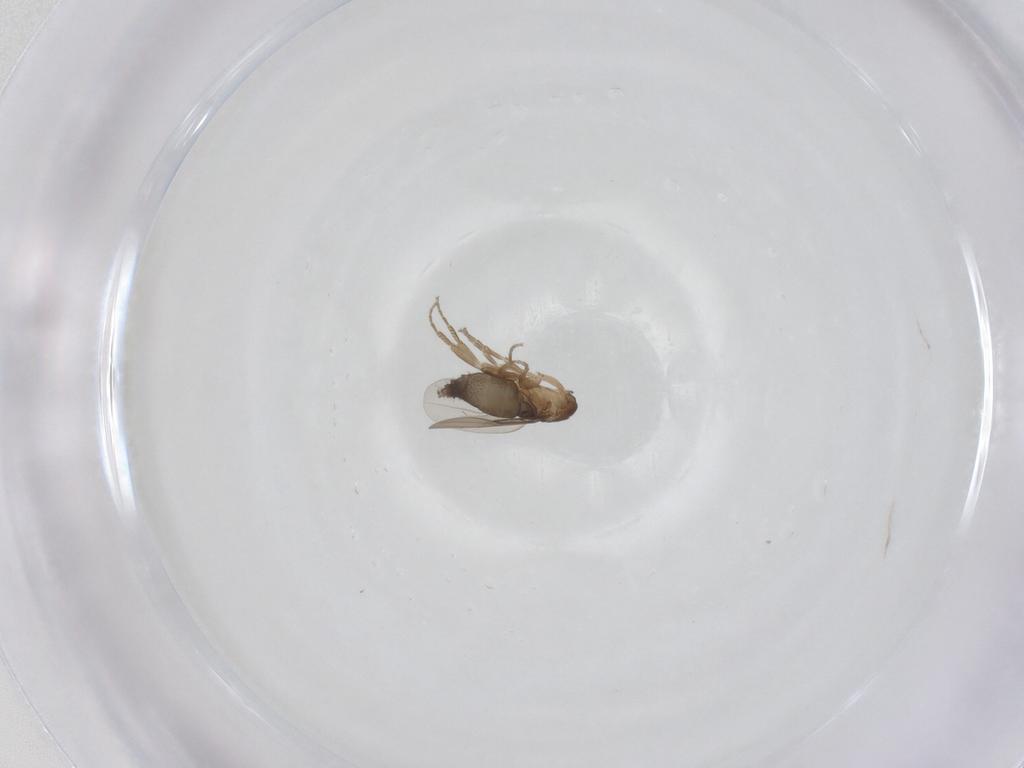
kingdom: Animalia
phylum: Arthropoda
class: Insecta
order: Diptera
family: Phoridae
